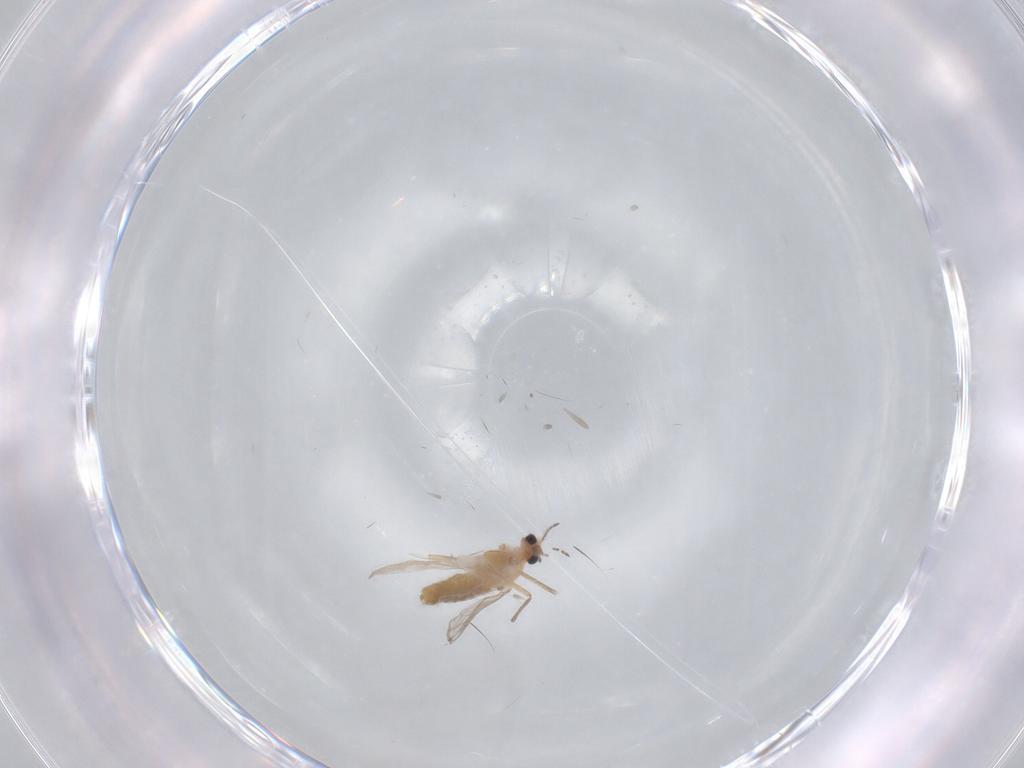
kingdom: Animalia
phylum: Arthropoda
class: Insecta
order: Diptera
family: Chironomidae
